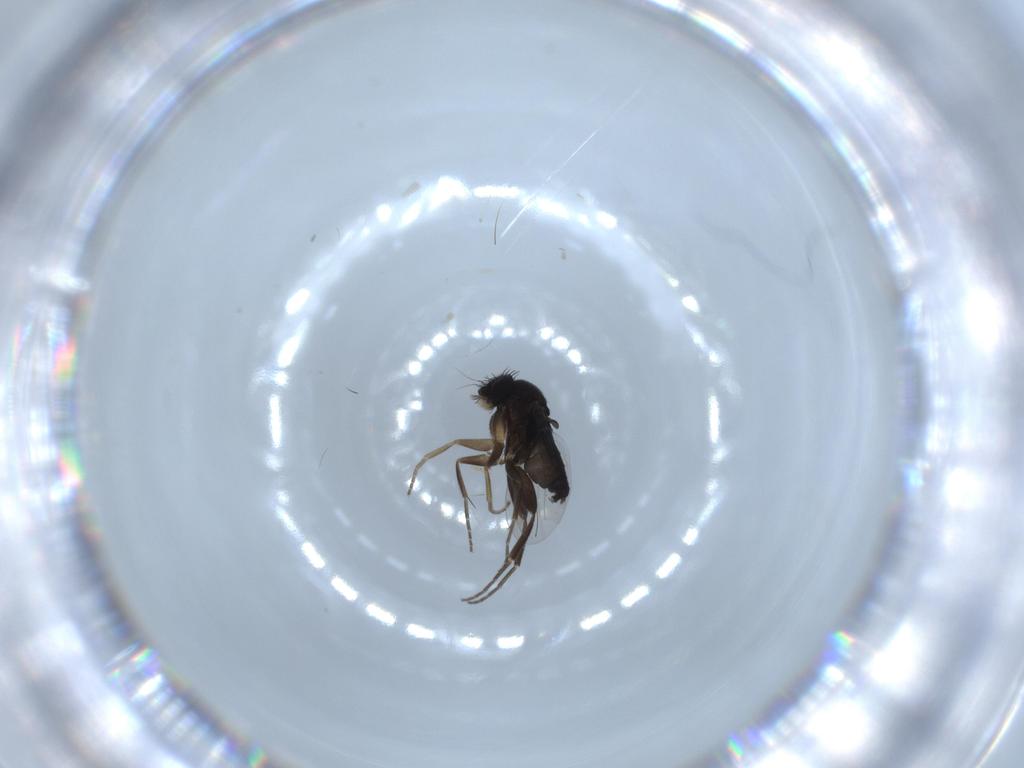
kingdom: Animalia
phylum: Arthropoda
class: Insecta
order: Diptera
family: Phoridae
